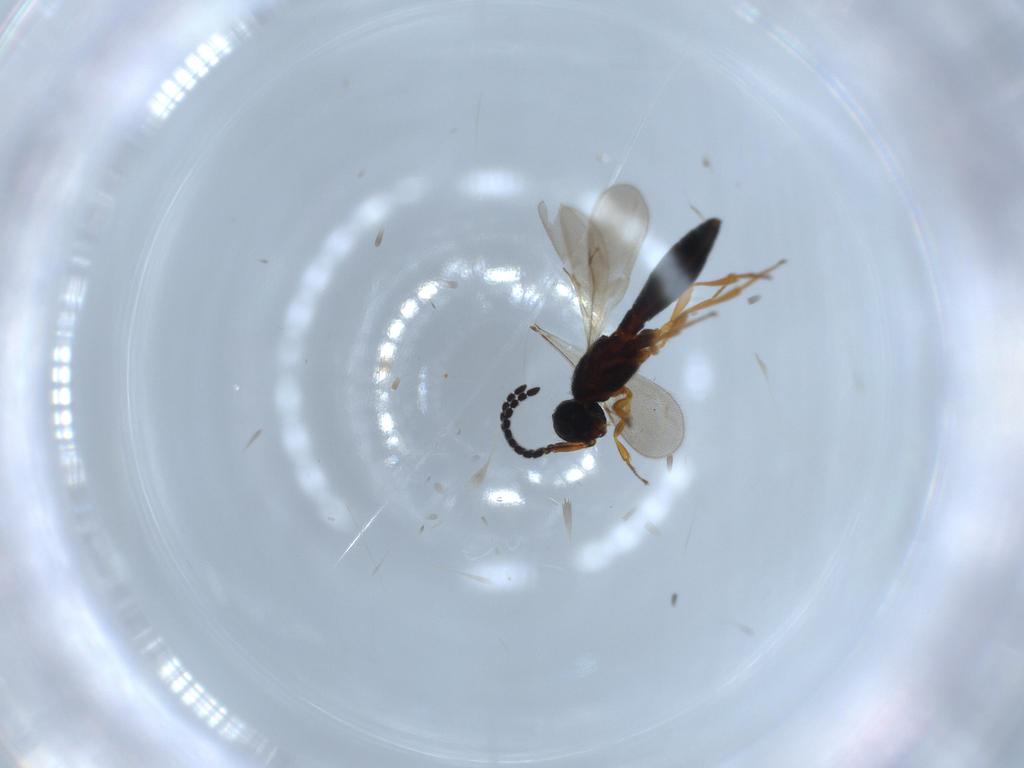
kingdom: Animalia
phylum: Arthropoda
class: Insecta
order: Hymenoptera
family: Scelionidae
